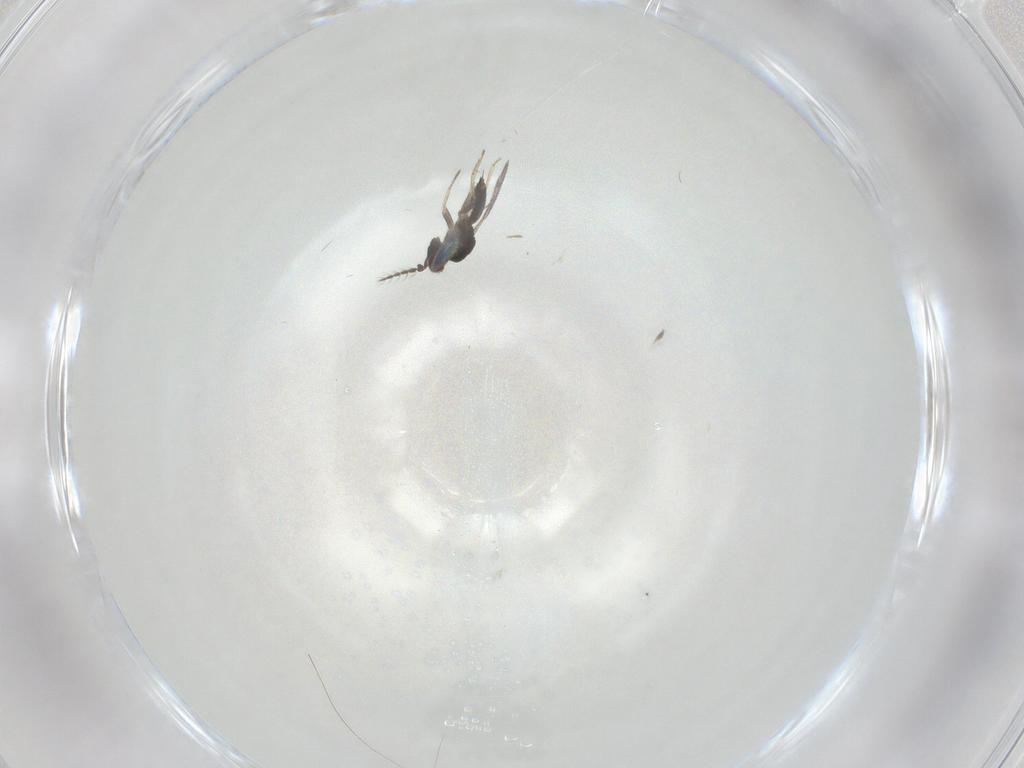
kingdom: Animalia
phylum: Arthropoda
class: Insecta
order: Hymenoptera
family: Eulophidae
